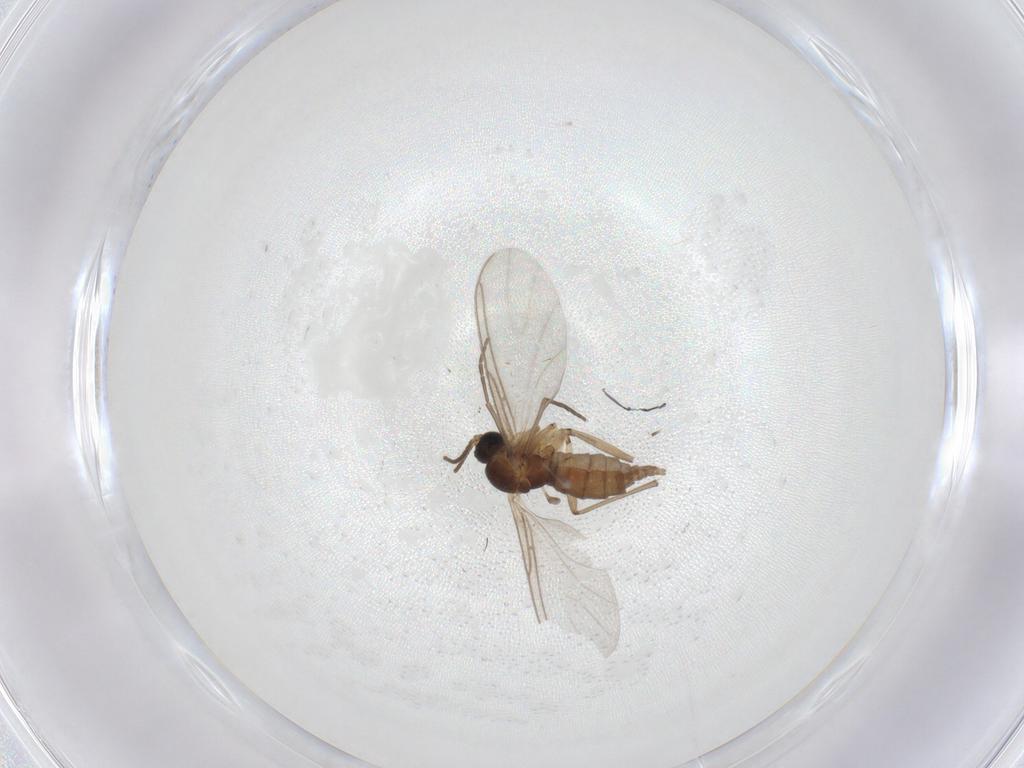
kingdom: Animalia
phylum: Arthropoda
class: Insecta
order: Diptera
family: Sciaridae
